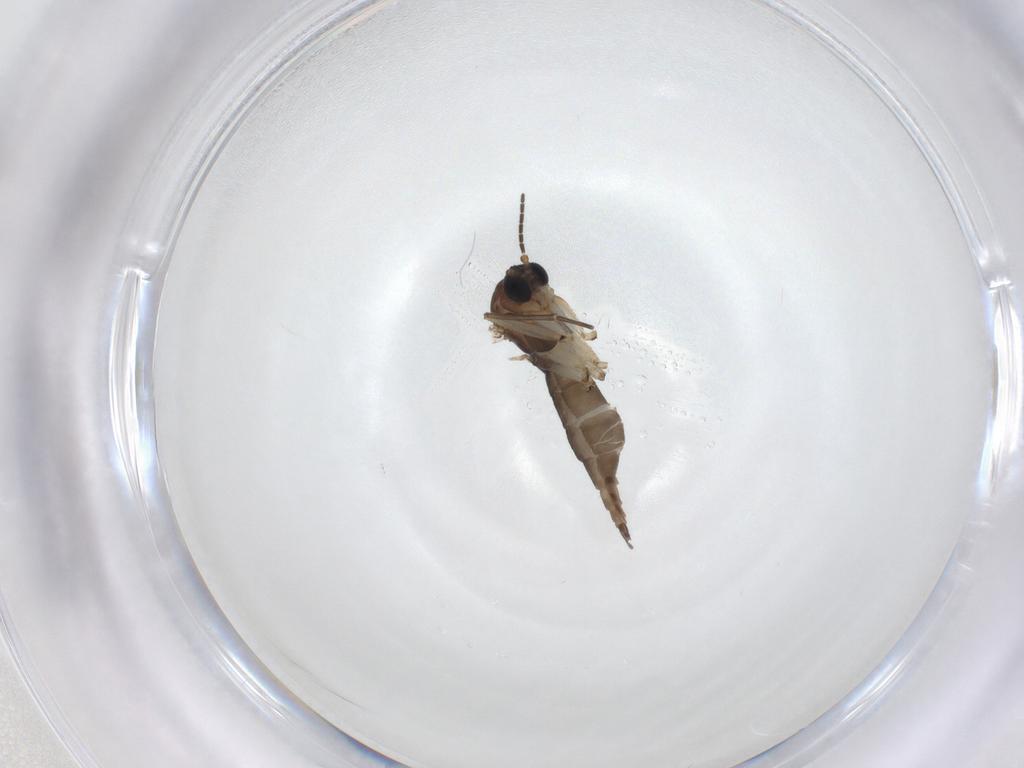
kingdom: Animalia
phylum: Arthropoda
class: Insecta
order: Diptera
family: Sciaridae
